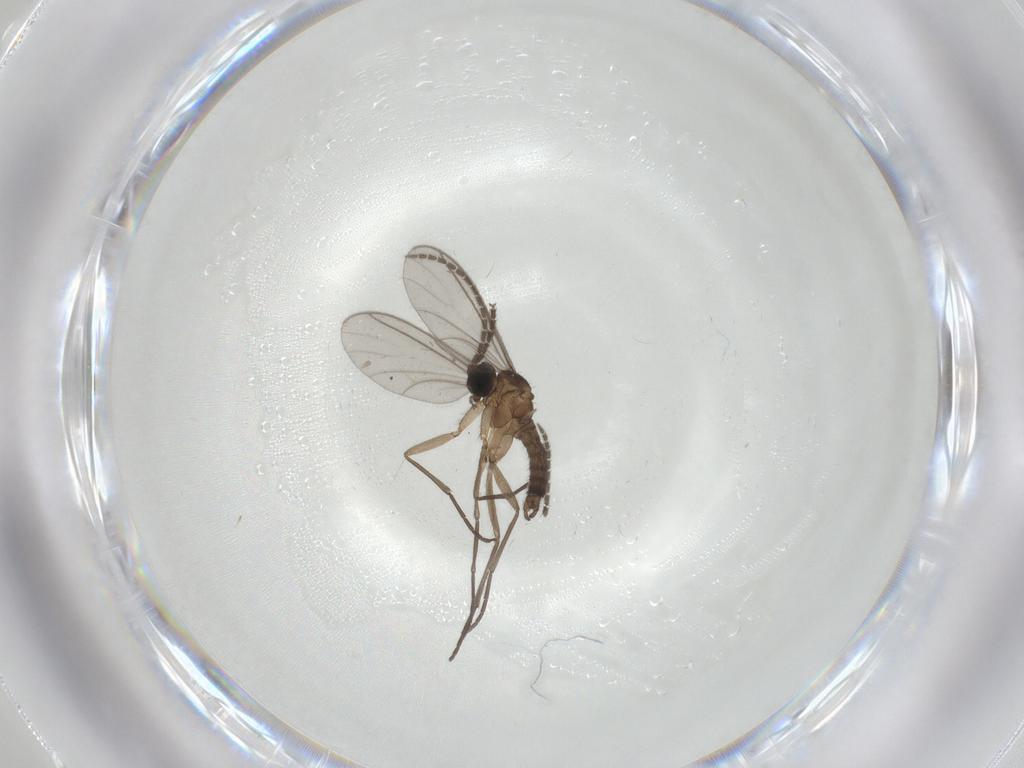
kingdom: Animalia
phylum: Arthropoda
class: Insecta
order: Diptera
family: Sciaridae
